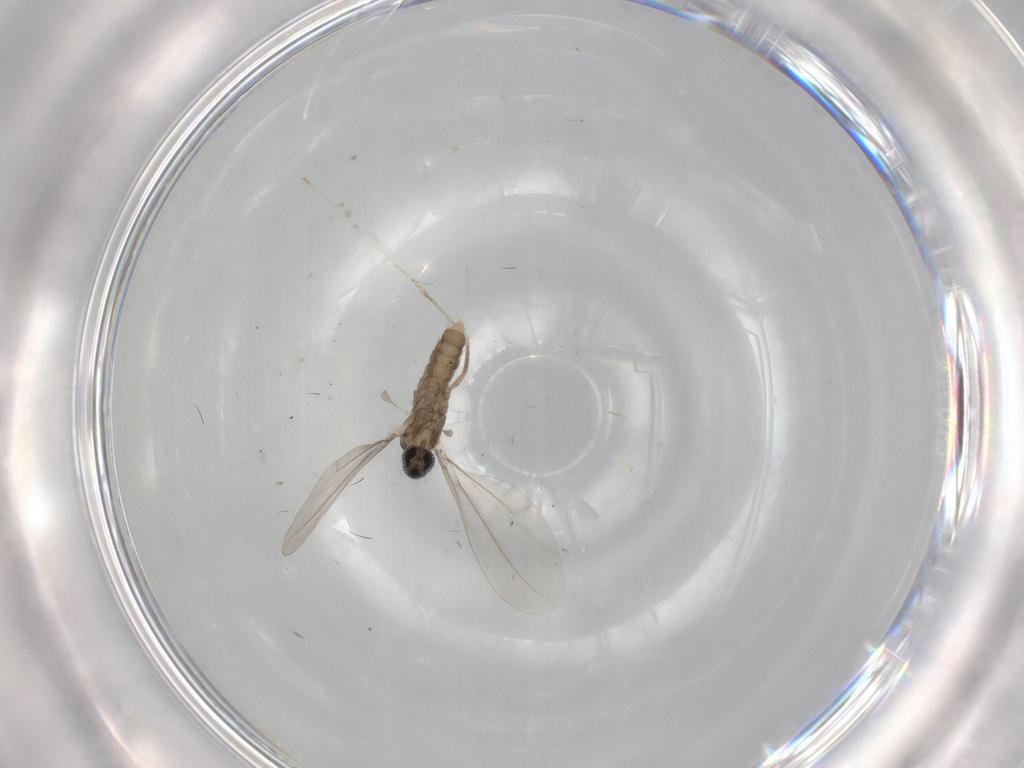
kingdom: Animalia
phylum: Arthropoda
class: Insecta
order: Diptera
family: Cecidomyiidae
